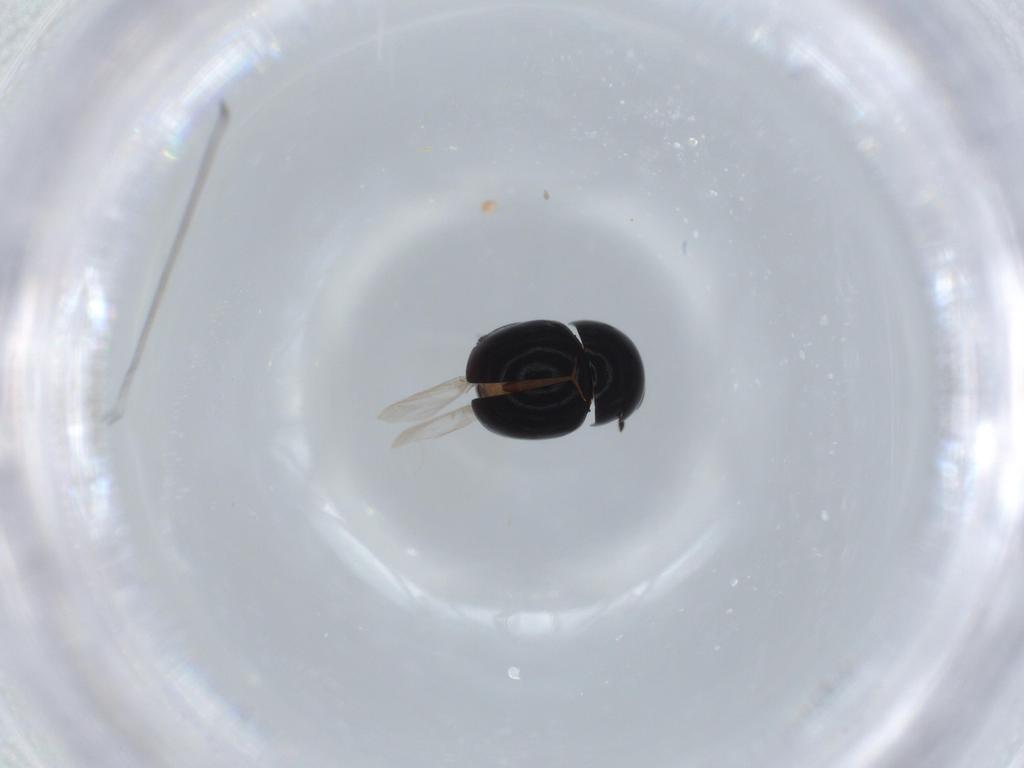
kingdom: Animalia
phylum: Arthropoda
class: Insecta
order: Coleoptera
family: Cybocephalidae
